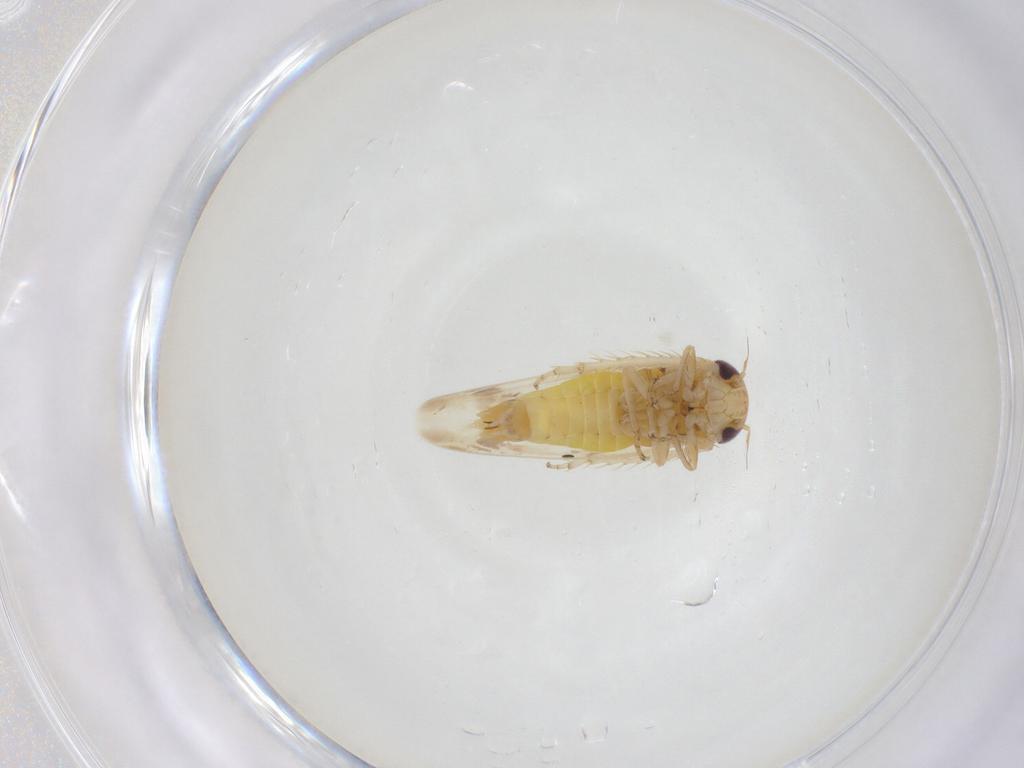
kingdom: Animalia
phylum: Arthropoda
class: Insecta
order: Hemiptera
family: Cicadellidae
